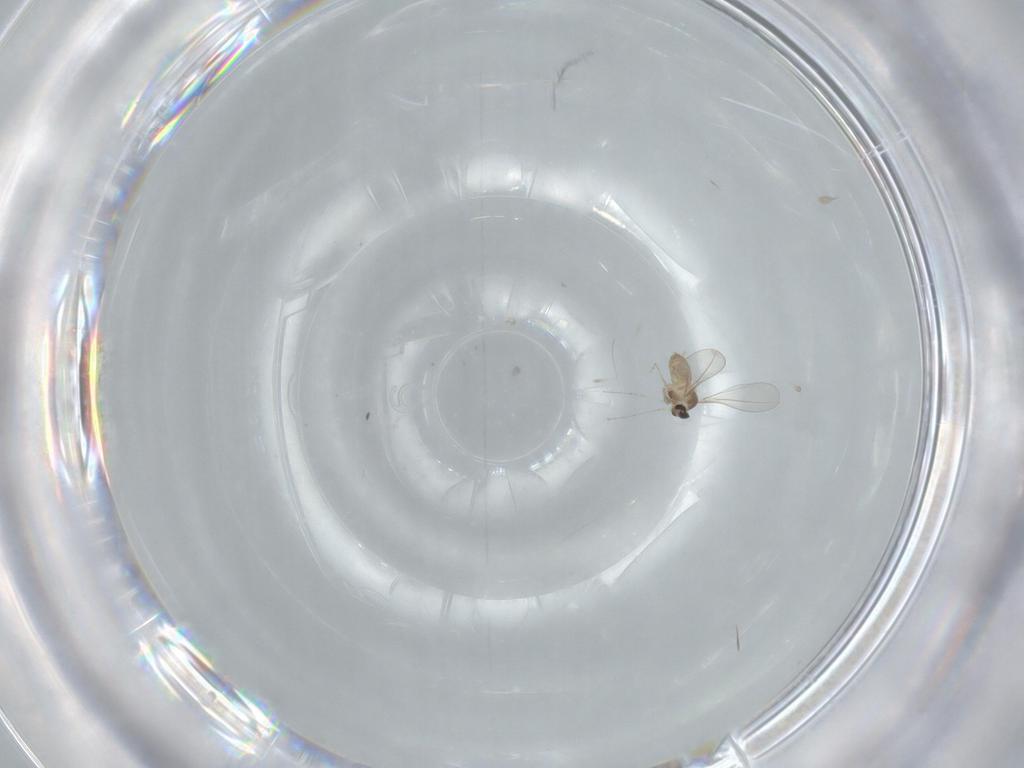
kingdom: Animalia
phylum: Arthropoda
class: Insecta
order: Diptera
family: Cecidomyiidae
